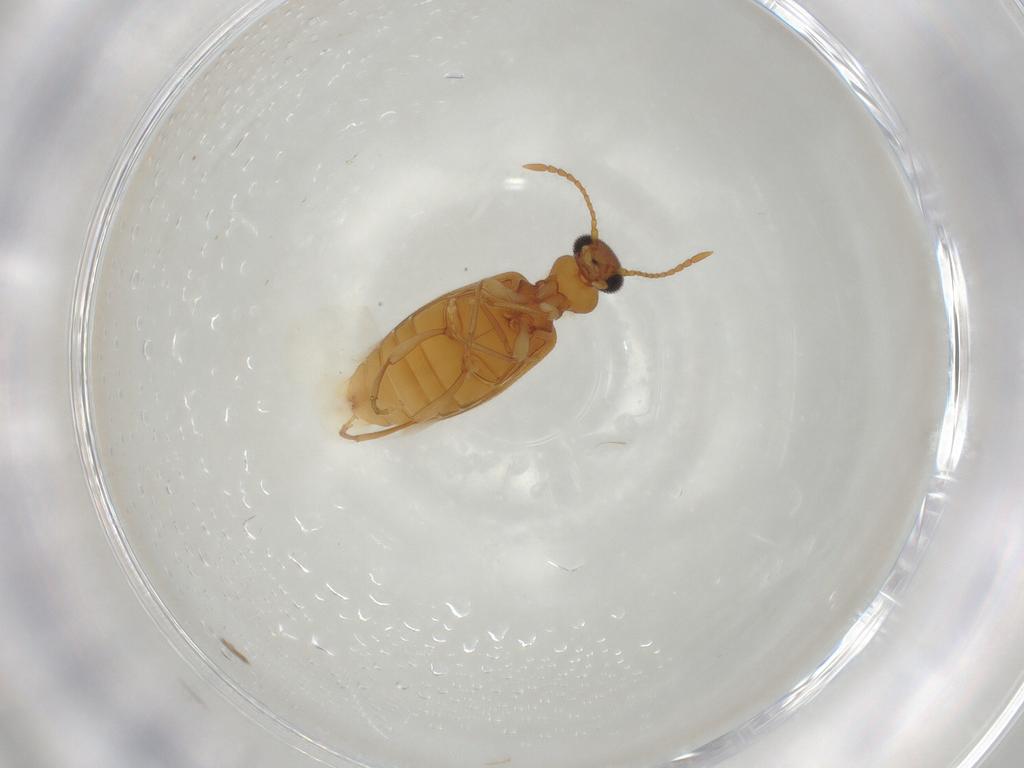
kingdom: Animalia
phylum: Arthropoda
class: Insecta
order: Coleoptera
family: Anthicidae
